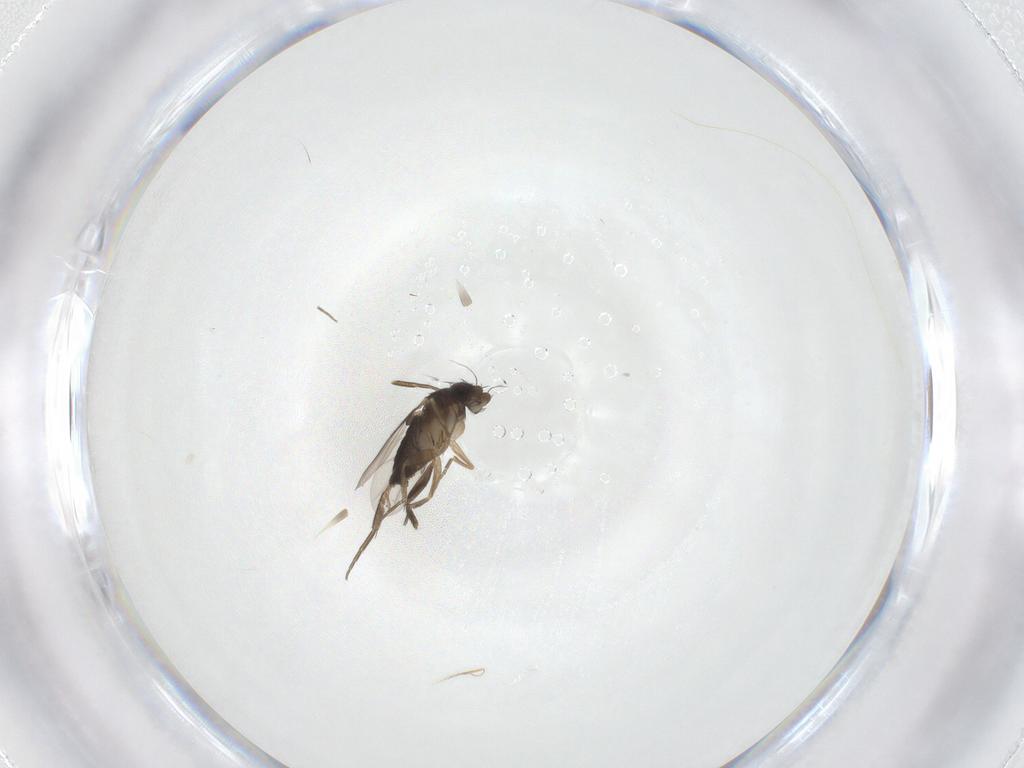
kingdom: Animalia
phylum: Arthropoda
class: Insecta
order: Diptera
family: Phoridae
